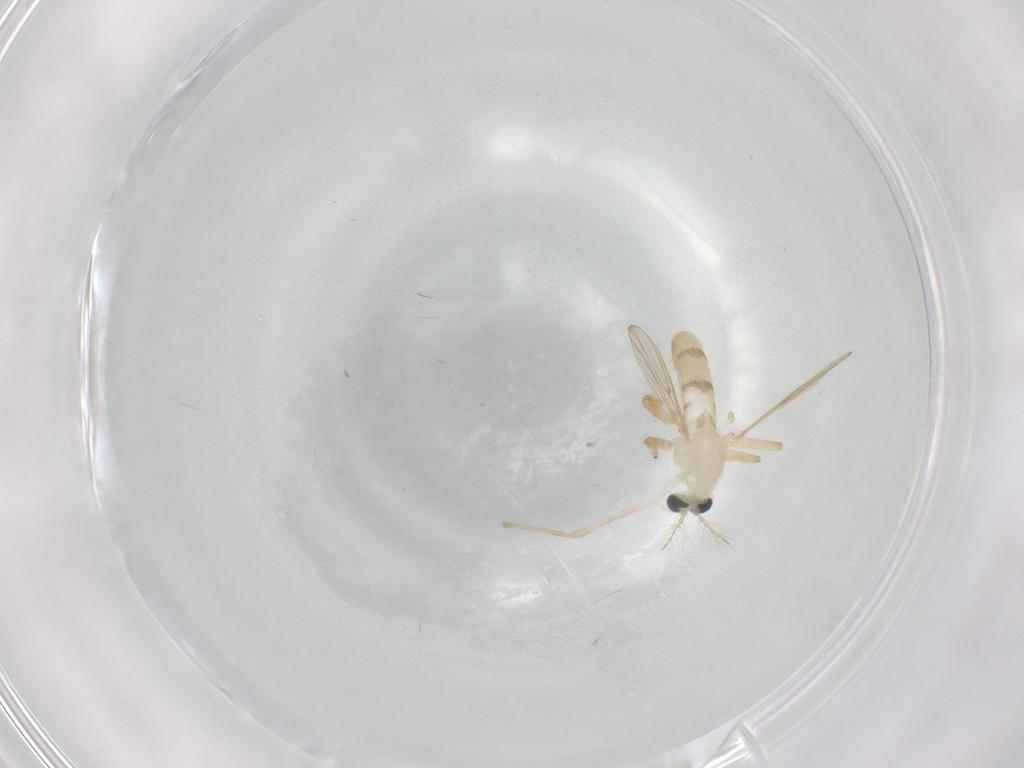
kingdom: Animalia
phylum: Arthropoda
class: Insecta
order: Diptera
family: Chironomidae
